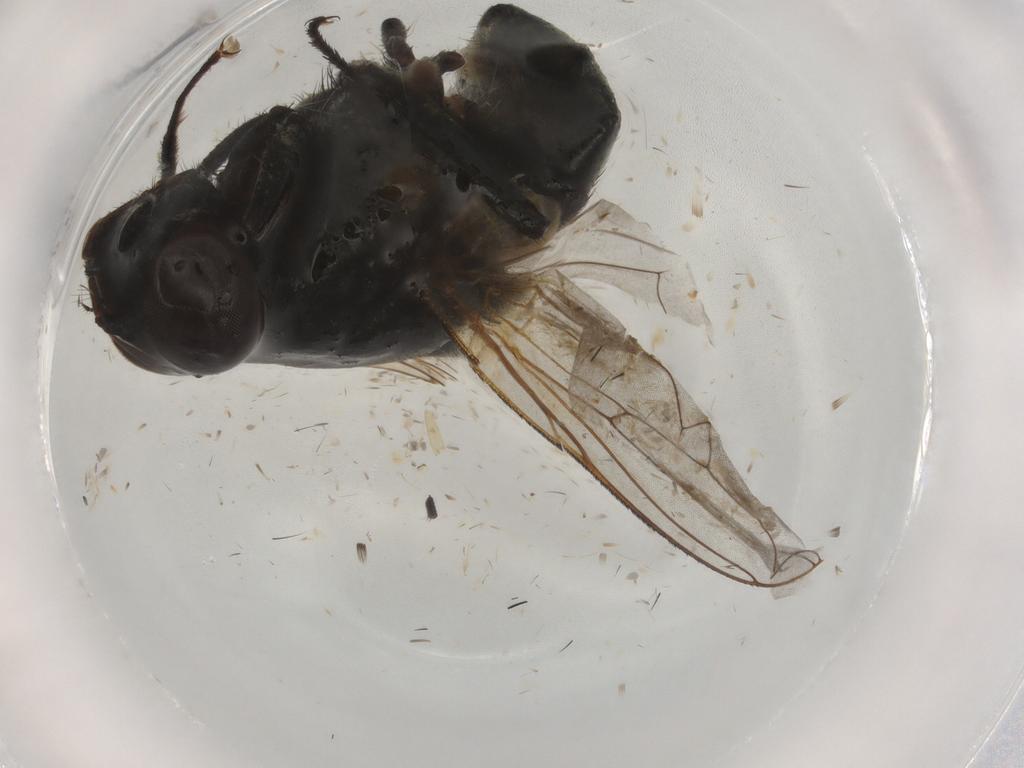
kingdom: Animalia
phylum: Arthropoda
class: Insecta
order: Diptera
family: Muscidae
